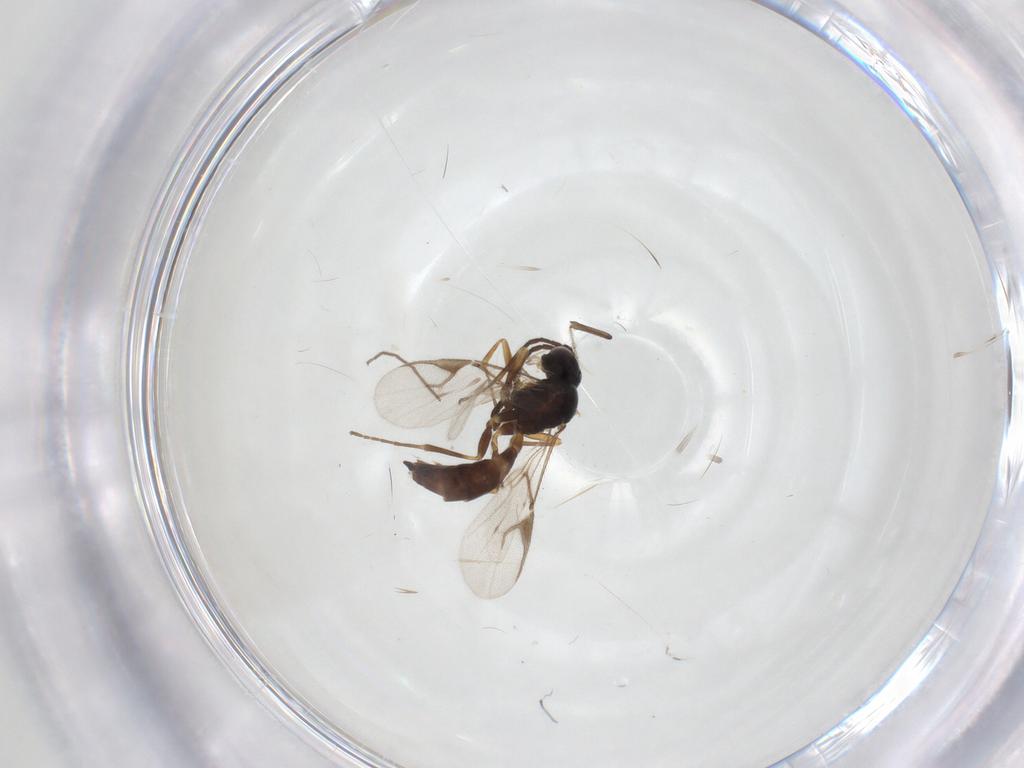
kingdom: Animalia
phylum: Arthropoda
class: Insecta
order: Hymenoptera
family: Braconidae
